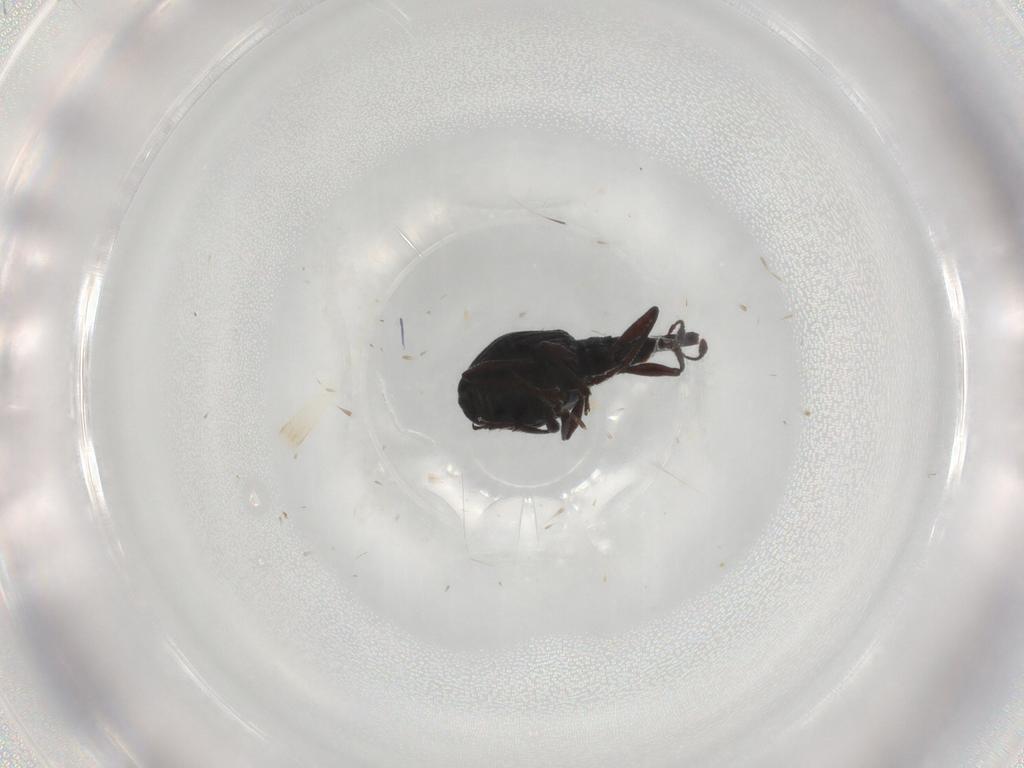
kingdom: Animalia
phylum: Arthropoda
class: Insecta
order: Coleoptera
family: Brentidae
